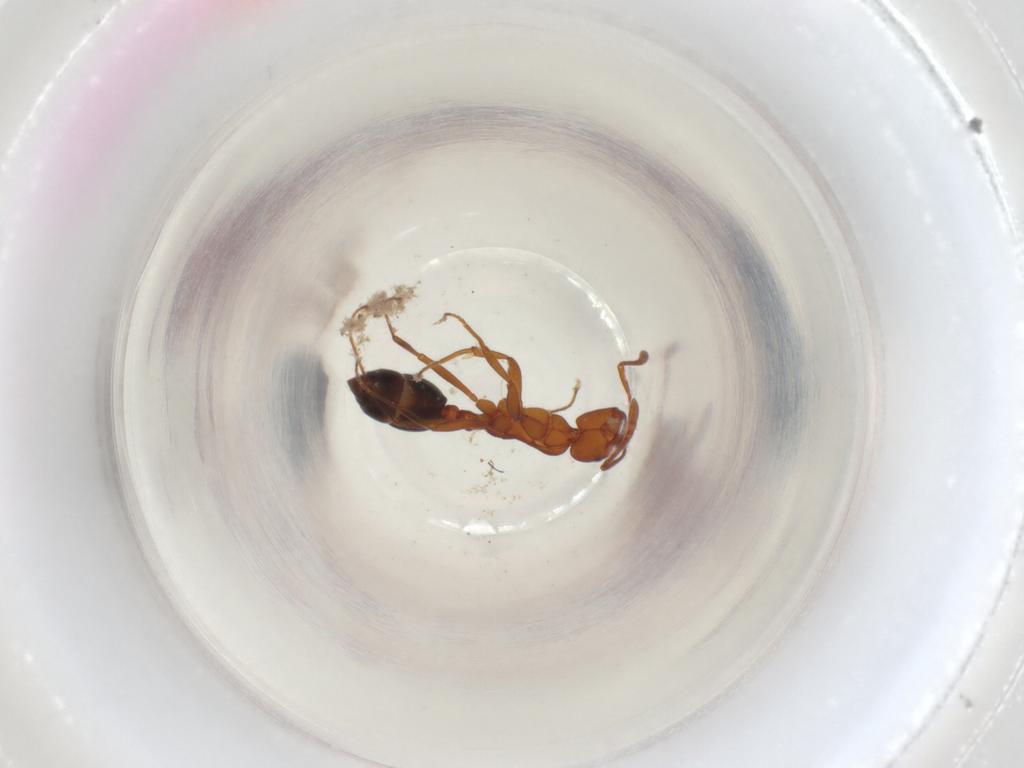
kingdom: Animalia
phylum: Arthropoda
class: Insecta
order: Hymenoptera
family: Formicidae
